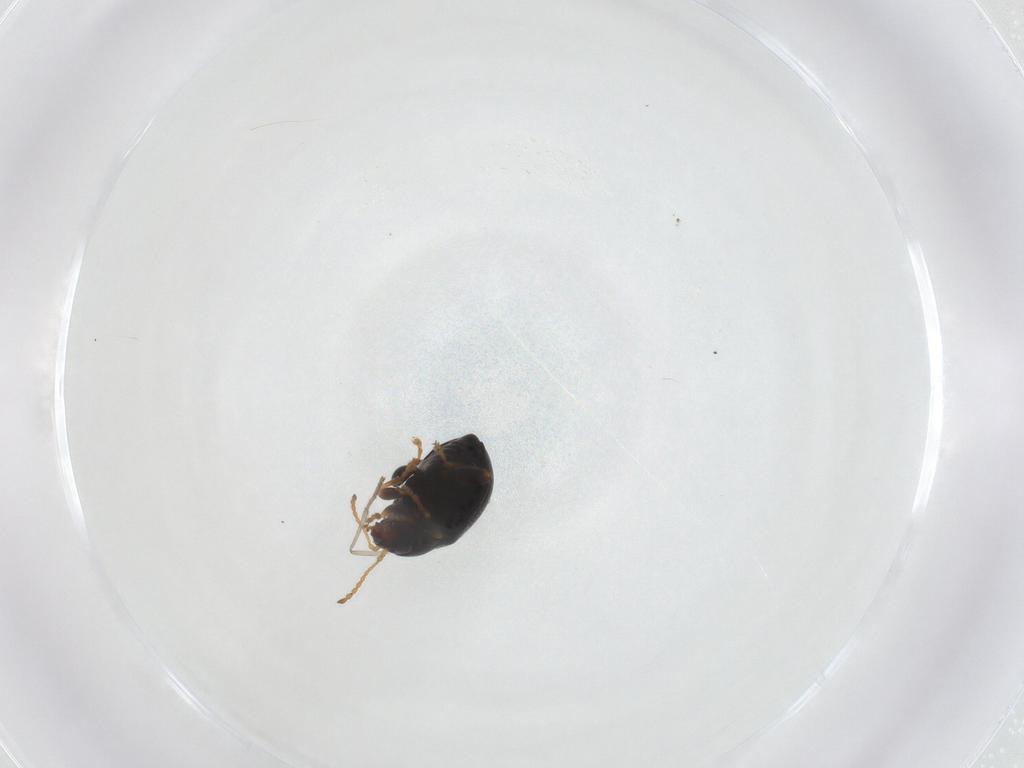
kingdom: Animalia
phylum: Arthropoda
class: Insecta
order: Coleoptera
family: Chrysomelidae
